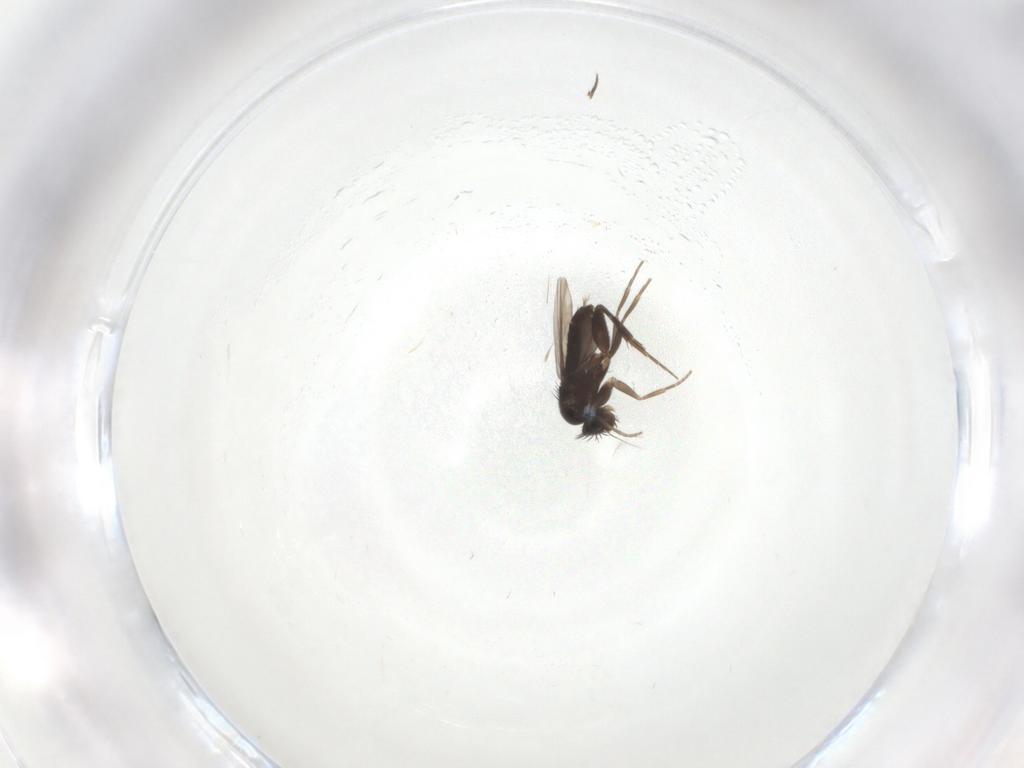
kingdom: Animalia
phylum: Arthropoda
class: Insecta
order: Diptera
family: Phoridae
